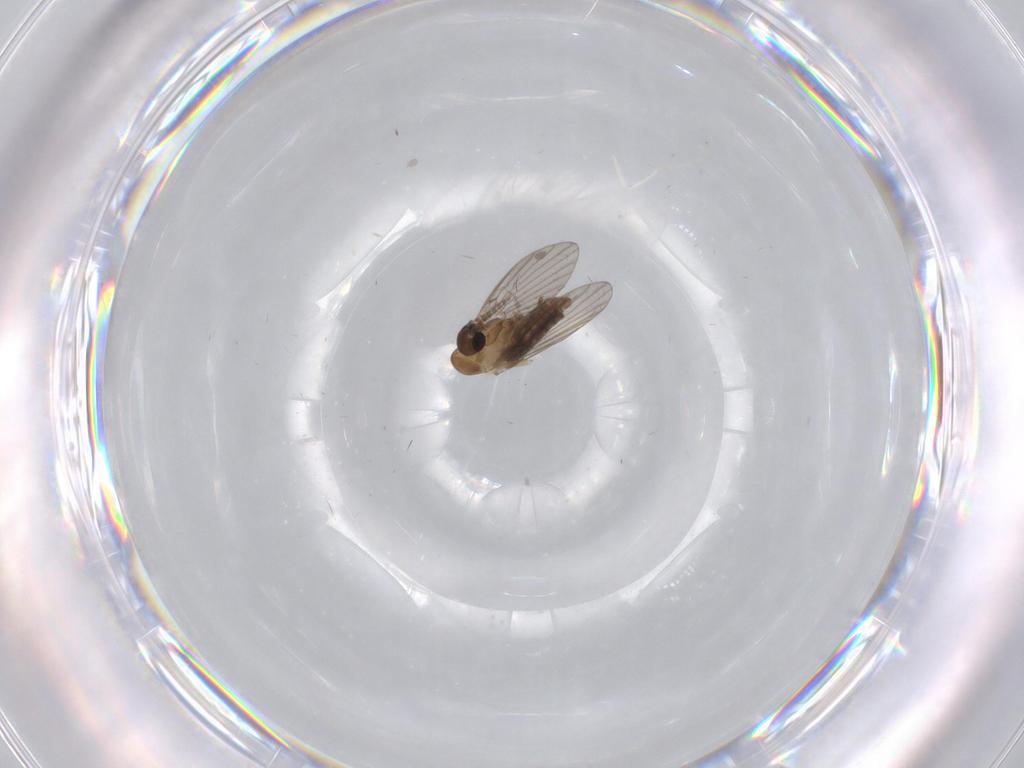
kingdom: Animalia
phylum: Arthropoda
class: Insecta
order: Diptera
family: Cecidomyiidae
